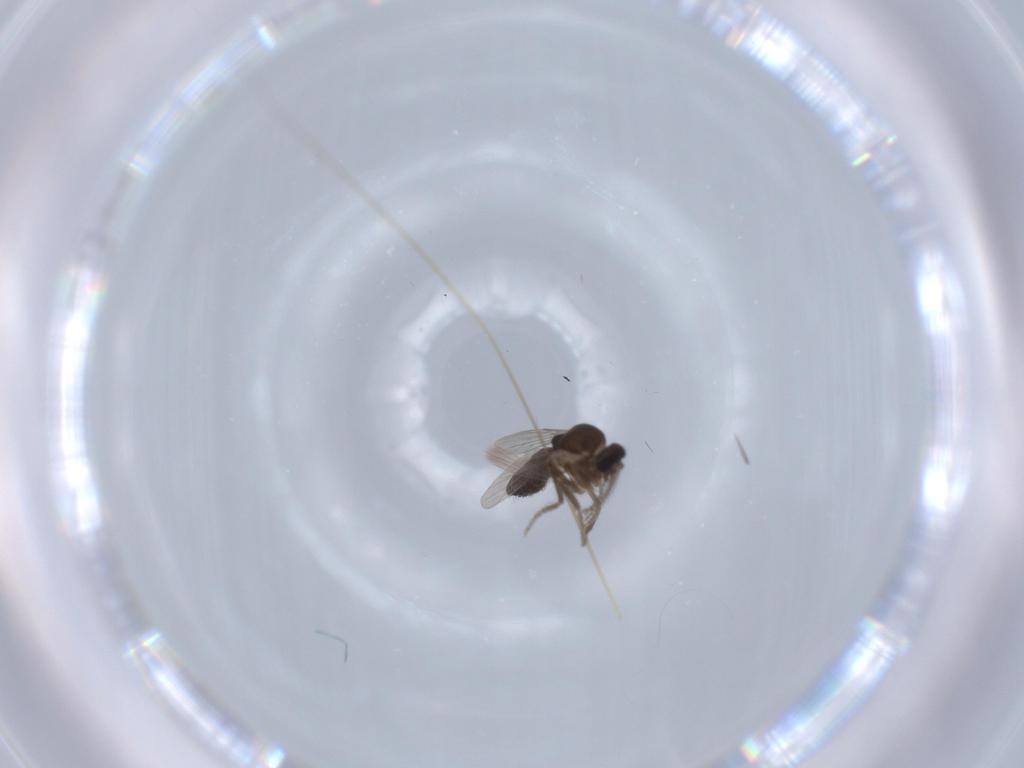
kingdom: Animalia
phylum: Arthropoda
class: Insecta
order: Diptera
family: Ceratopogonidae
